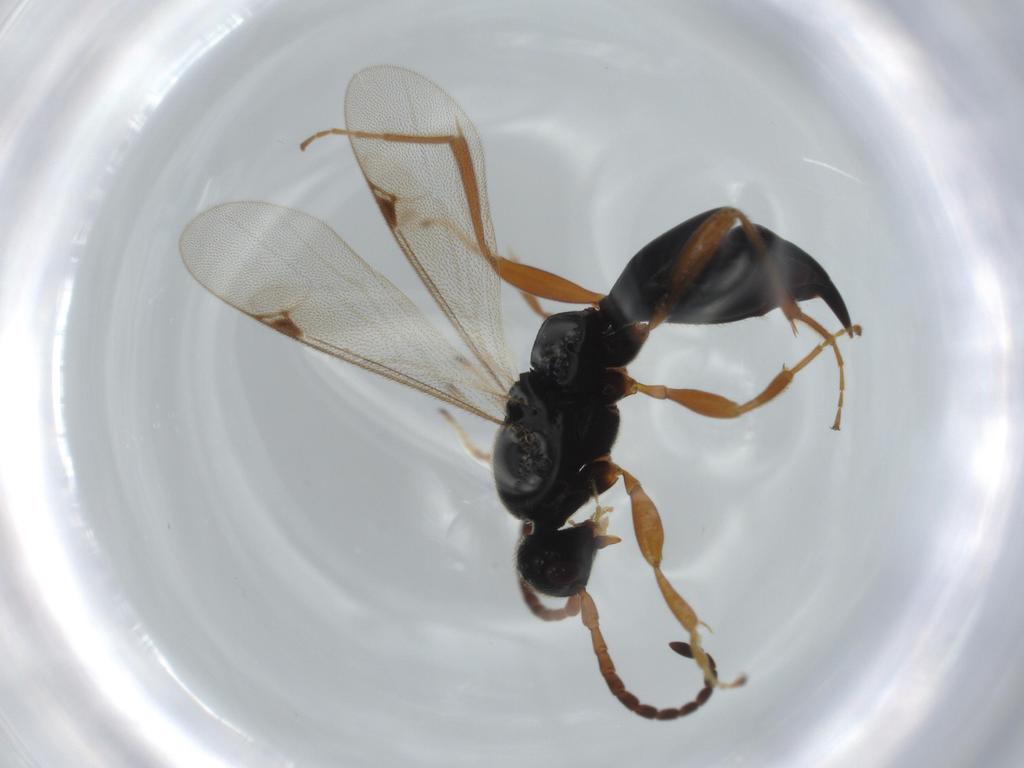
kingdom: Animalia
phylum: Arthropoda
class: Insecta
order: Hymenoptera
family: Proctotrupidae
